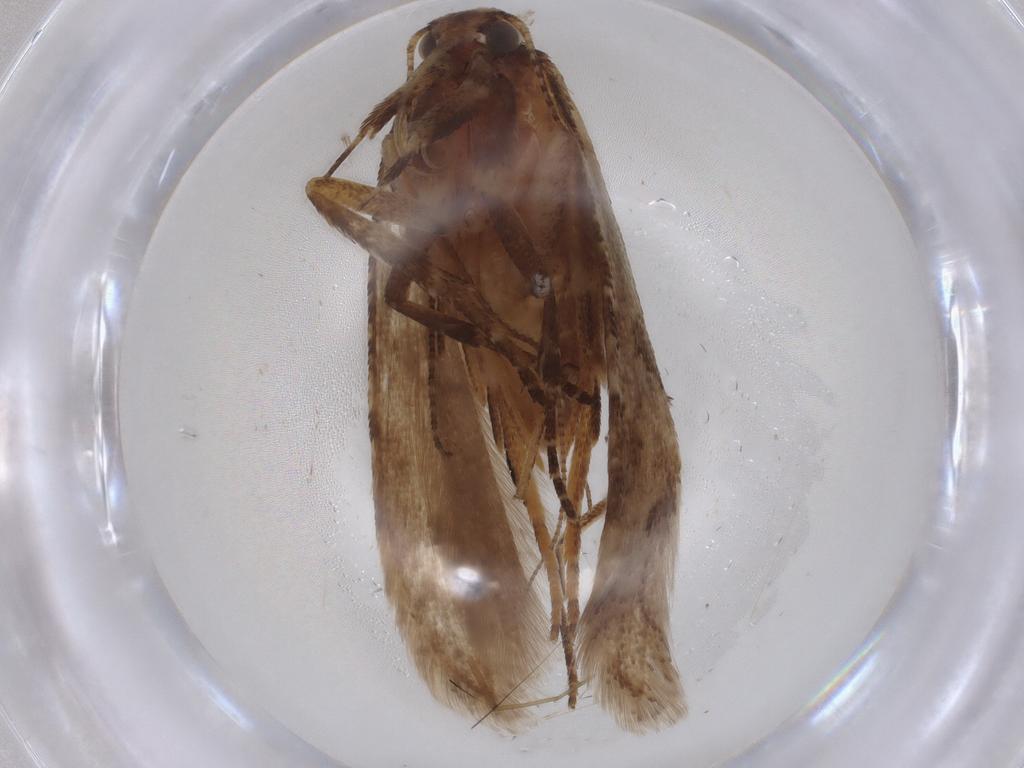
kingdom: Animalia
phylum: Arthropoda
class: Insecta
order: Lepidoptera
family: Gelechiidae
